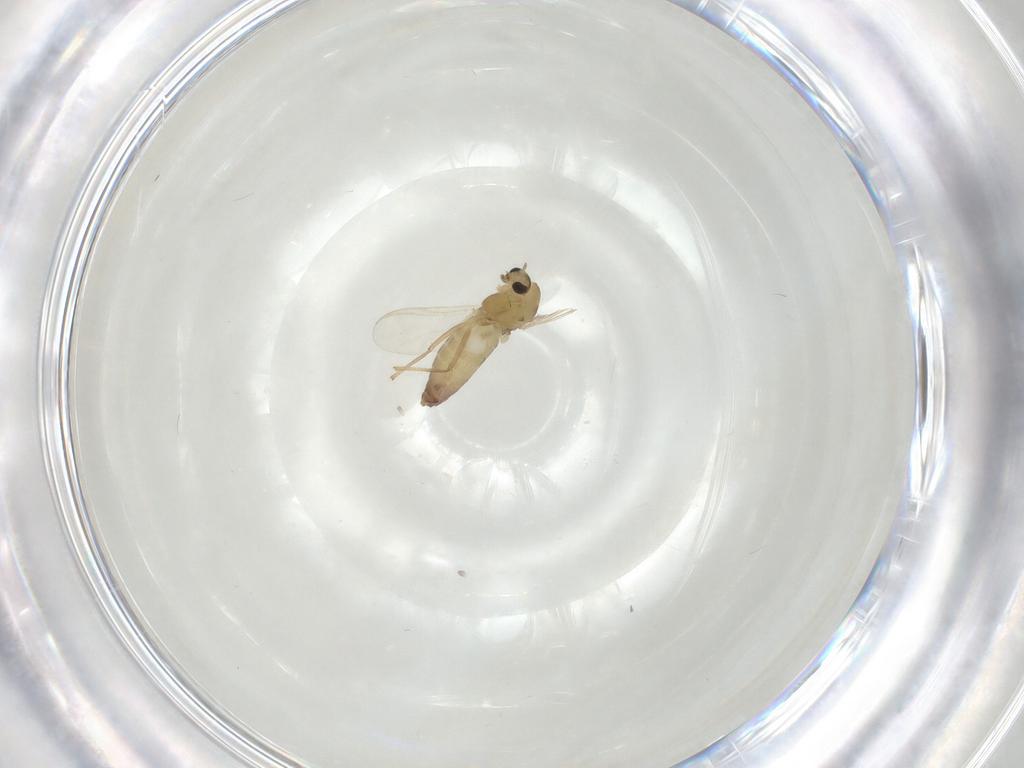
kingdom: Animalia
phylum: Arthropoda
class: Insecta
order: Diptera
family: Chironomidae
